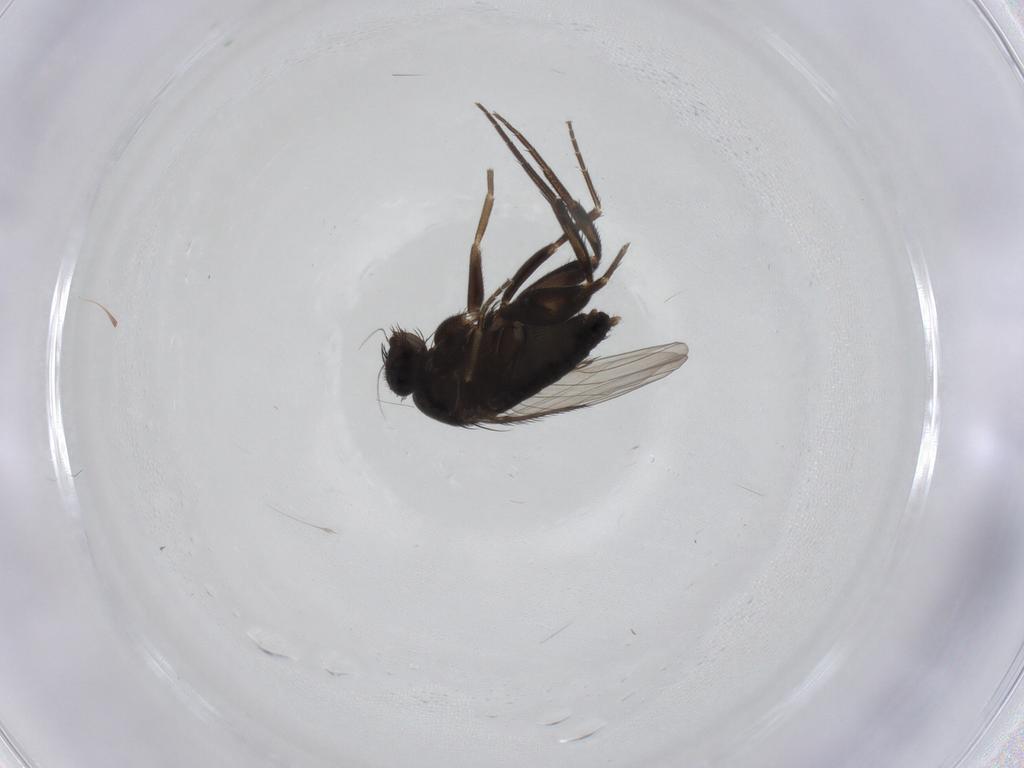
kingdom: Animalia
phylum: Arthropoda
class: Insecta
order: Diptera
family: Phoridae
